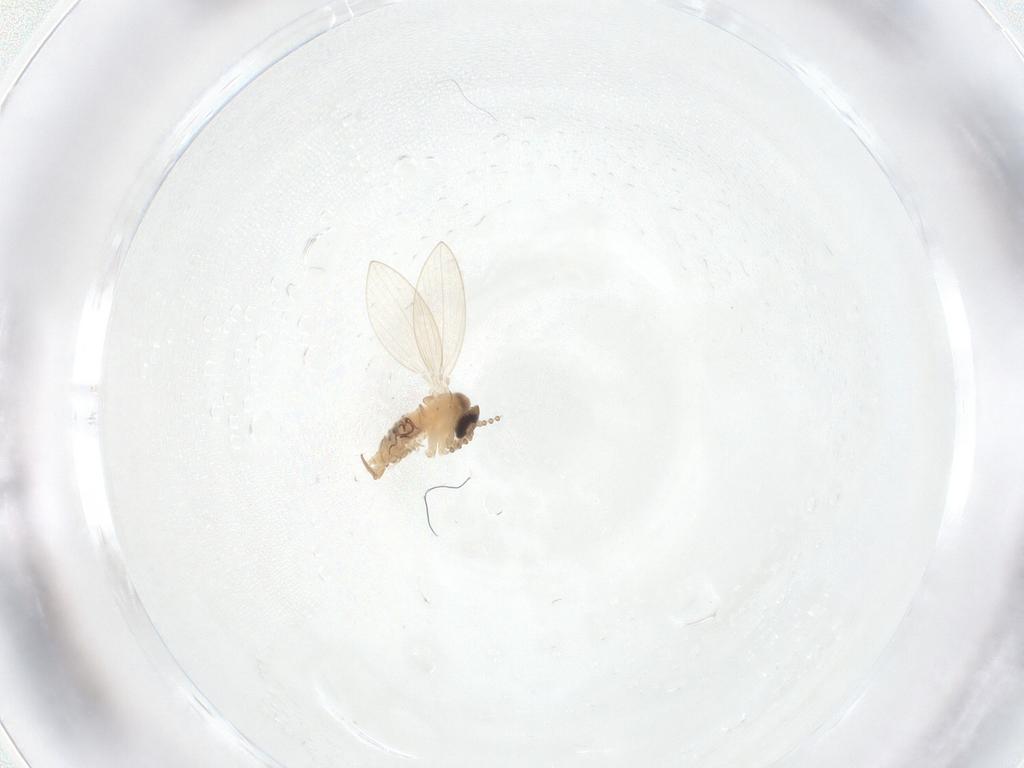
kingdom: Animalia
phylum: Arthropoda
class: Insecta
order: Diptera
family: Psychodidae
